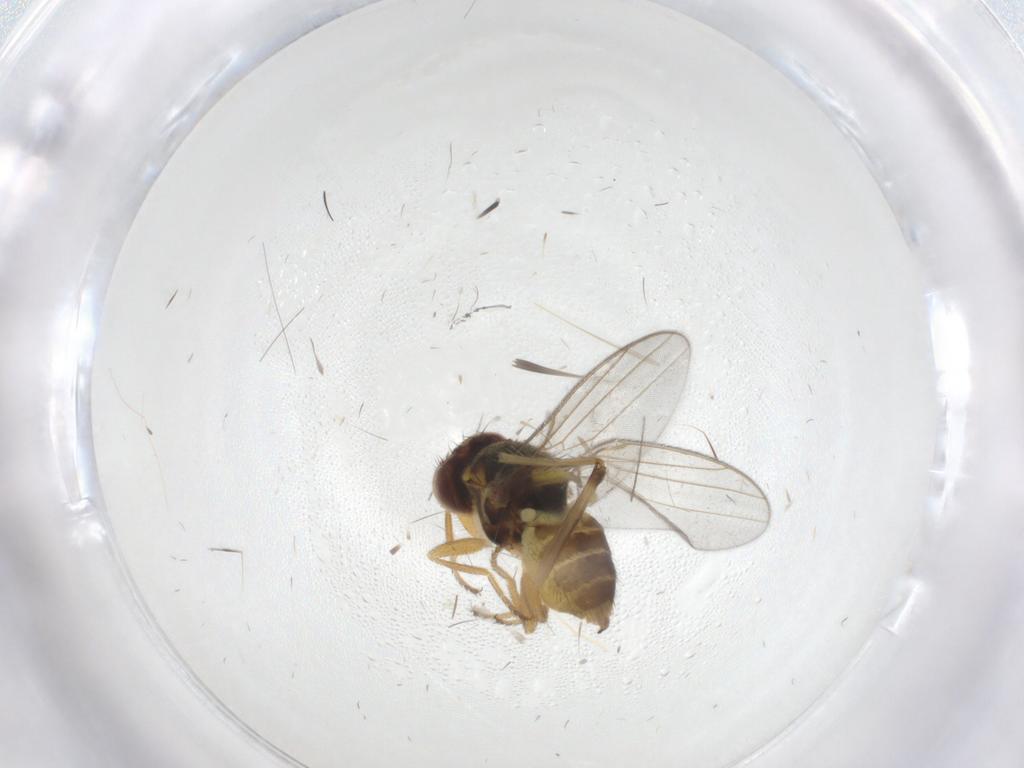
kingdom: Animalia
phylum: Arthropoda
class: Insecta
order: Diptera
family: Chloropidae
